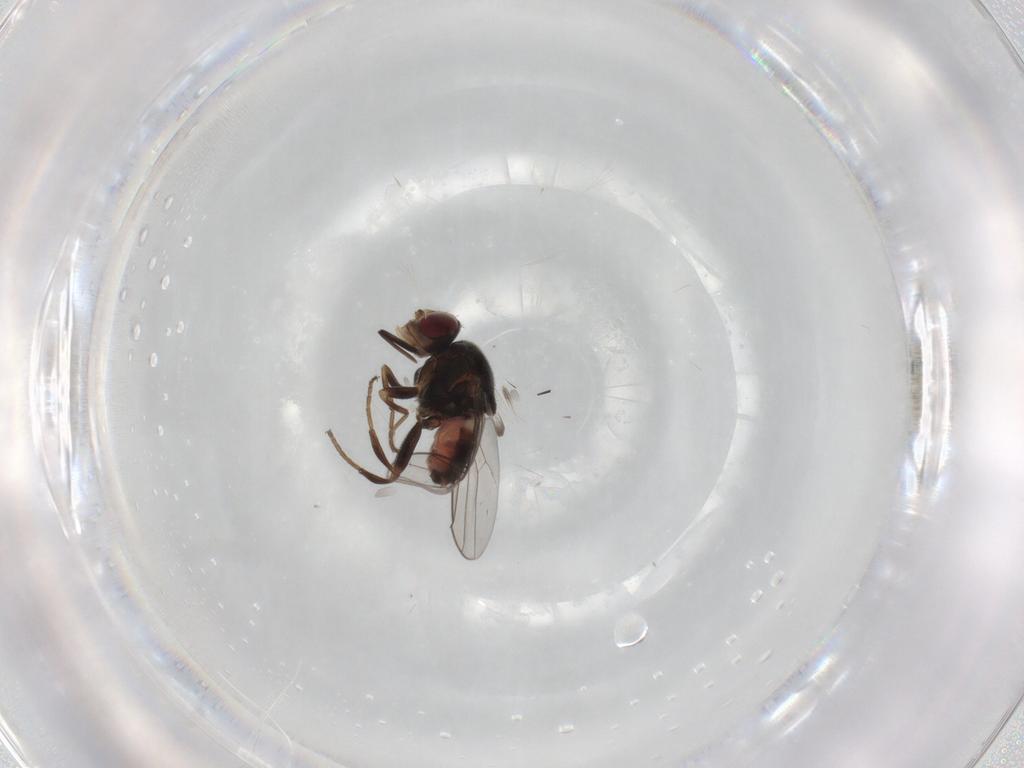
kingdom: Animalia
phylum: Arthropoda
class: Insecta
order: Diptera
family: Chloropidae
